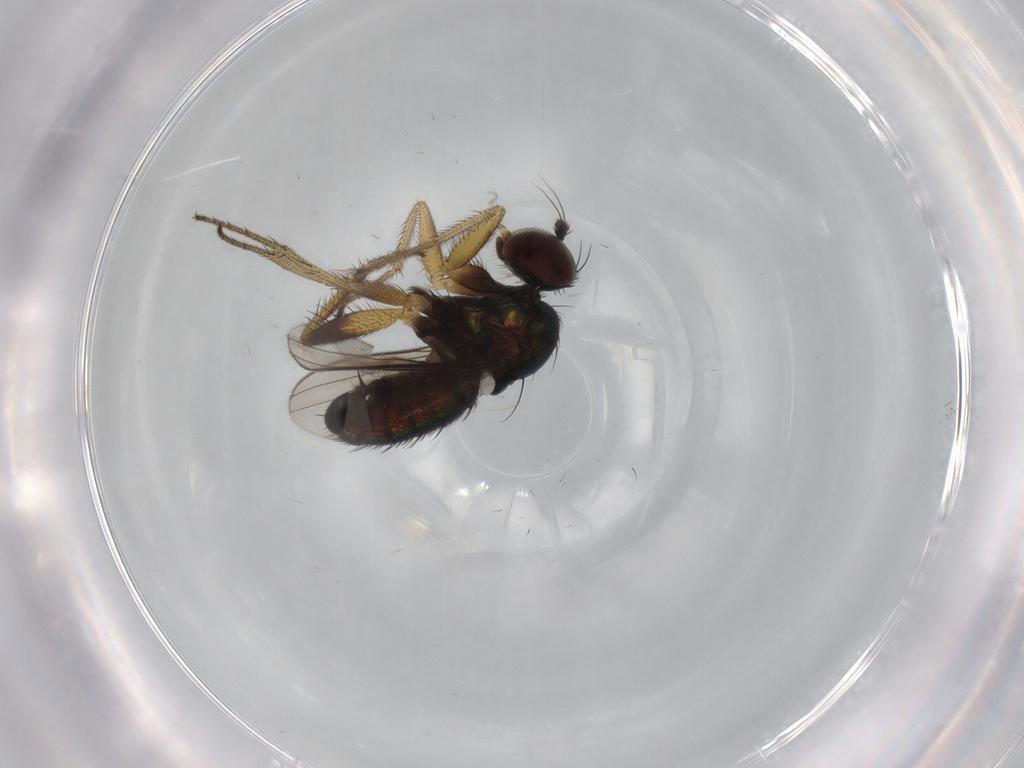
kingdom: Animalia
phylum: Arthropoda
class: Insecta
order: Diptera
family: Dolichopodidae
